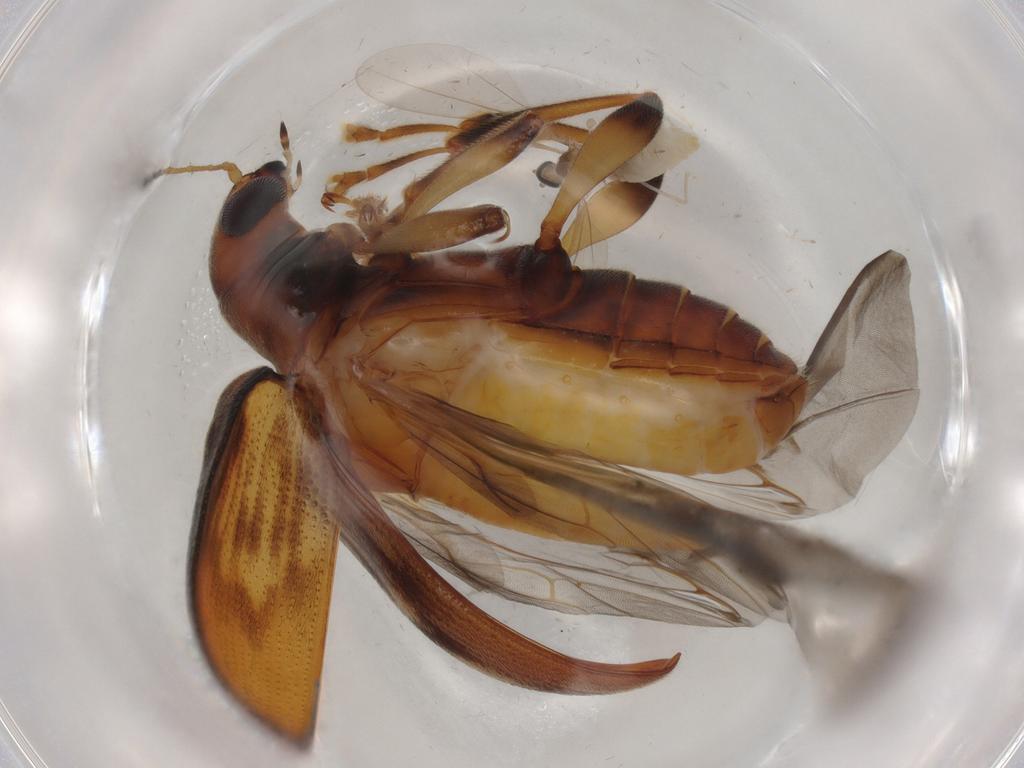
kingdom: Animalia
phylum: Arthropoda
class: Insecta
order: Coleoptera
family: Chrysomelidae
